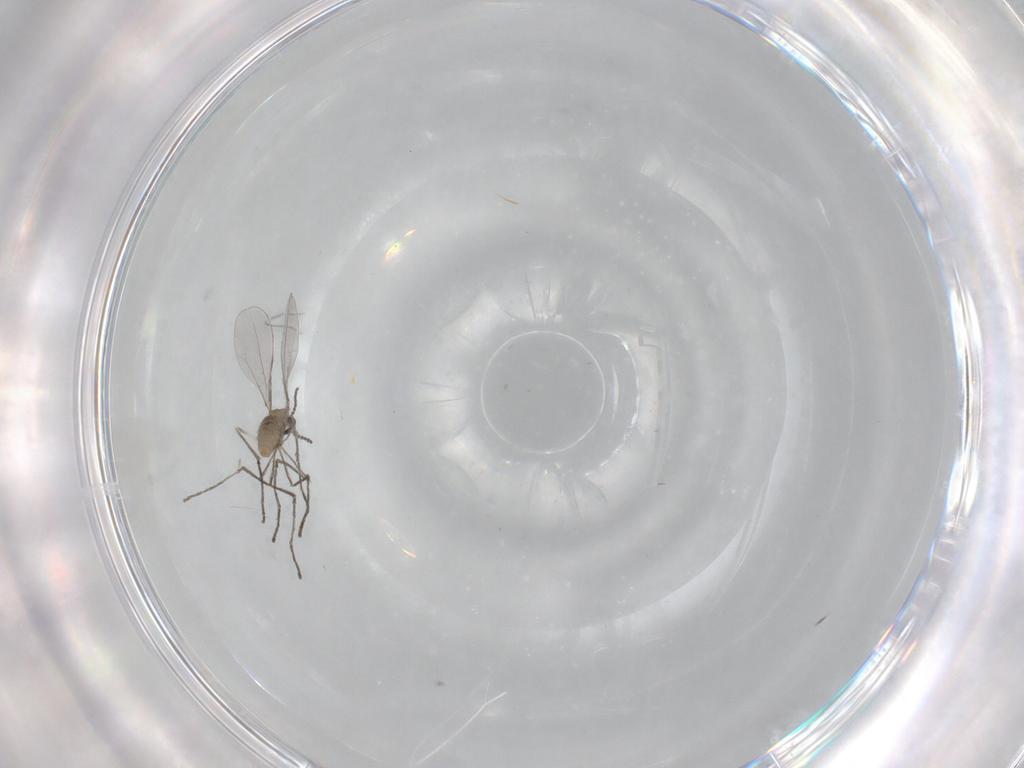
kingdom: Animalia
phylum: Arthropoda
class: Insecta
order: Diptera
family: Cecidomyiidae
